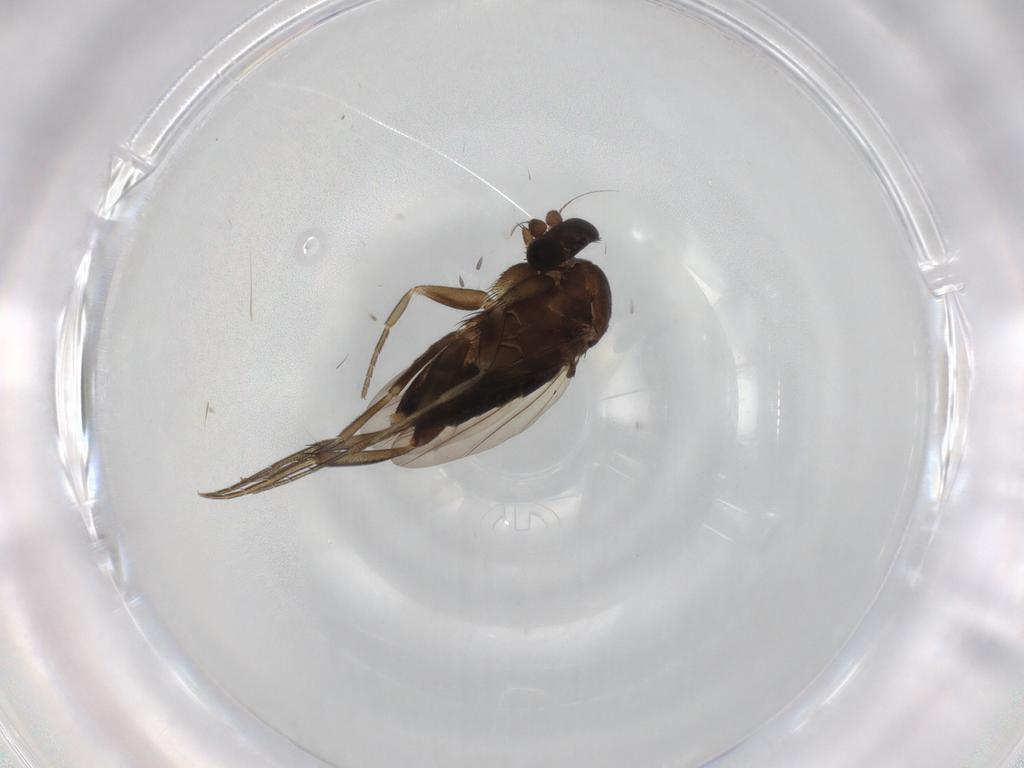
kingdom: Animalia
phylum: Arthropoda
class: Insecta
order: Diptera
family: Phoridae
